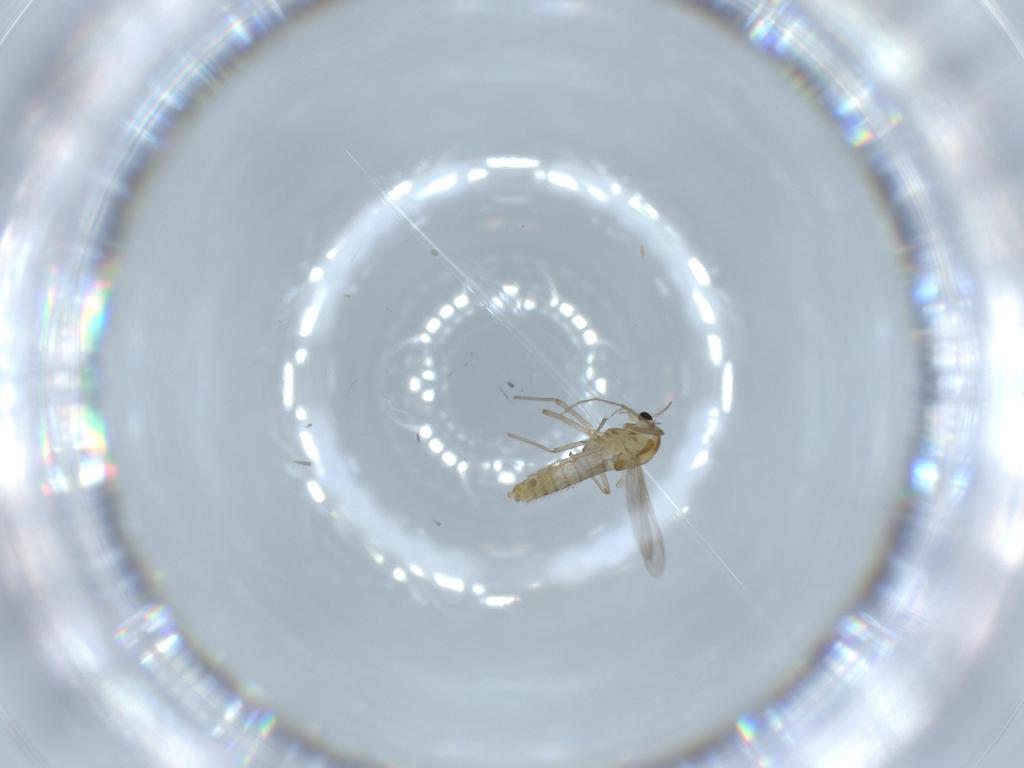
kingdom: Animalia
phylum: Arthropoda
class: Insecta
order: Diptera
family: Chironomidae
